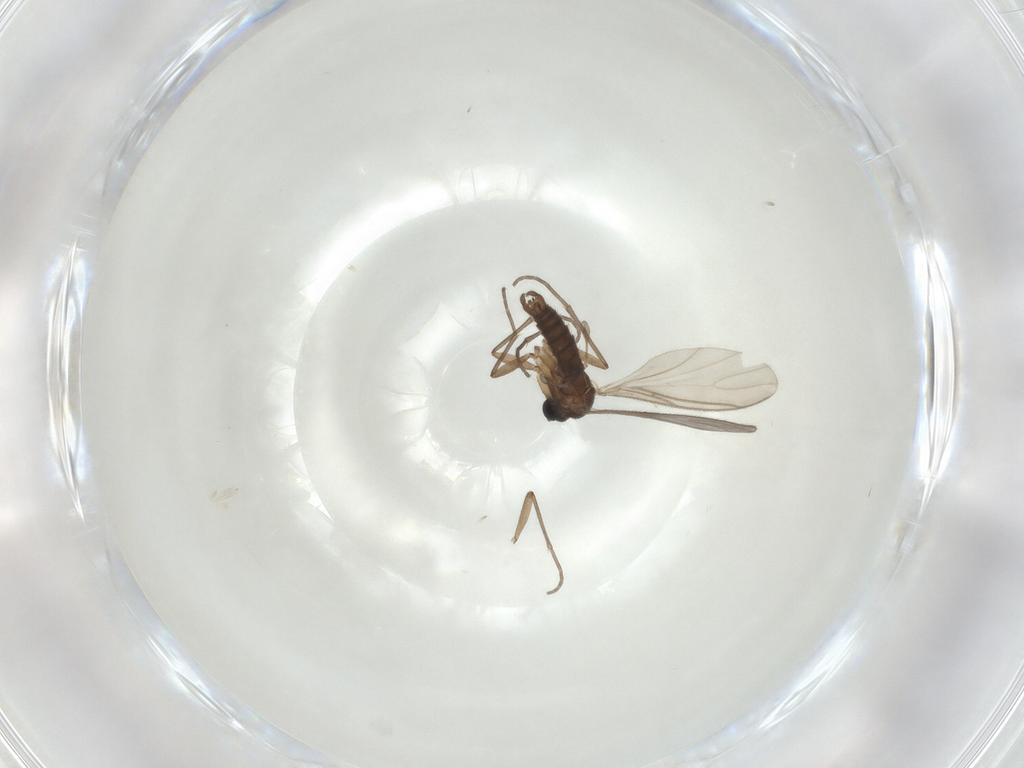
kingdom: Animalia
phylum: Arthropoda
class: Insecta
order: Diptera
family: Sciaridae
